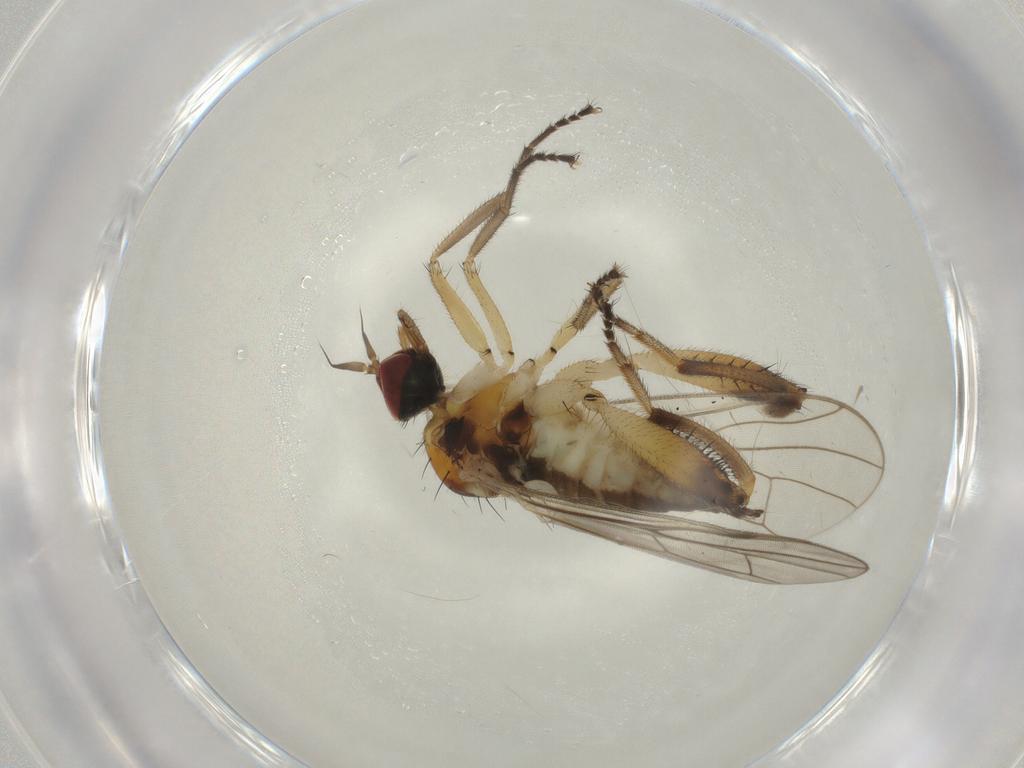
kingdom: Animalia
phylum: Arthropoda
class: Insecta
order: Diptera
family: Hybotidae
